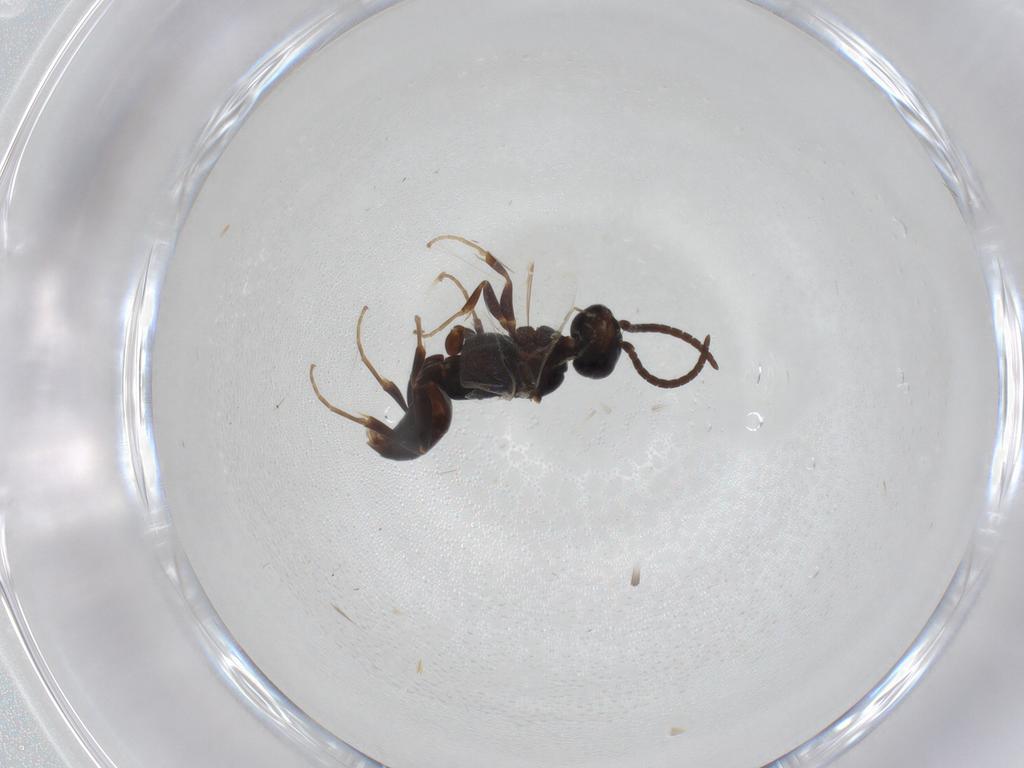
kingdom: Animalia
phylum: Arthropoda
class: Insecta
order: Hymenoptera
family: Bethylidae
